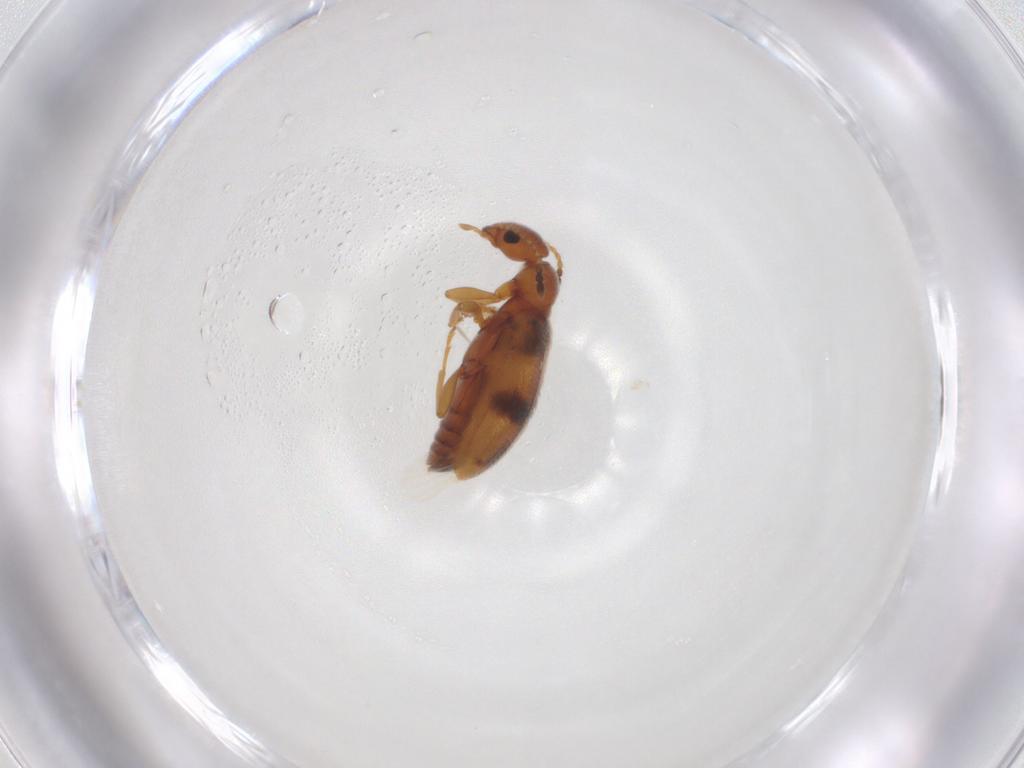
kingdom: Animalia
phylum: Arthropoda
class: Insecta
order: Coleoptera
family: Anthicidae
